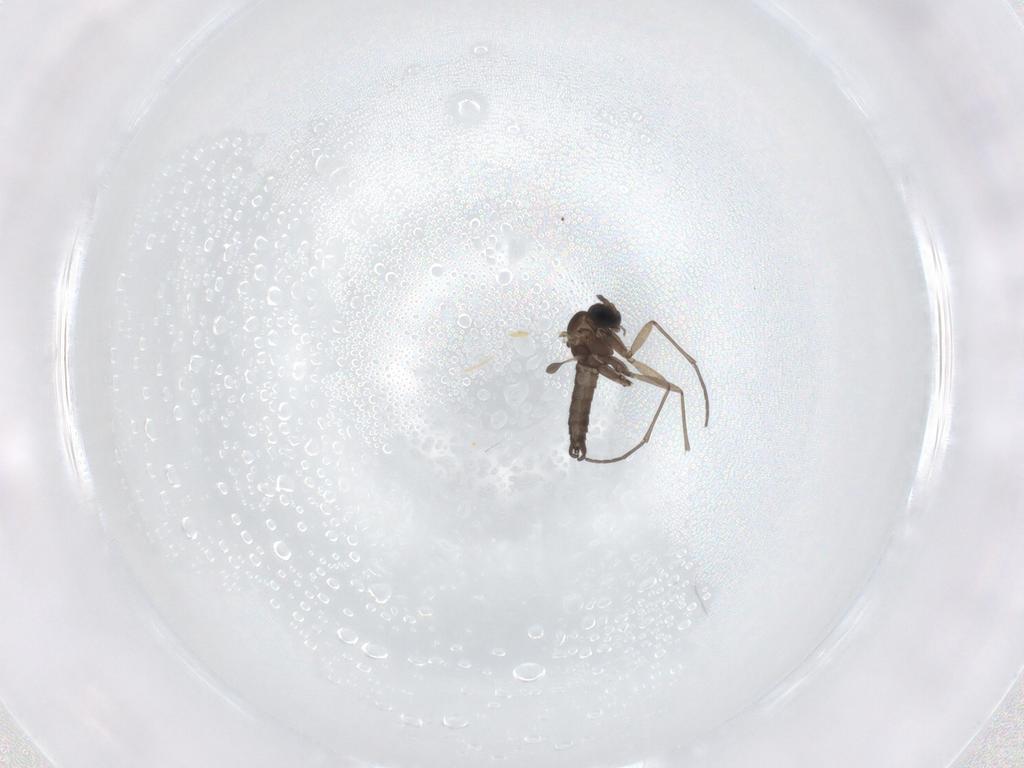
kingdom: Animalia
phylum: Arthropoda
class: Insecta
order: Diptera
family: Sciaridae
